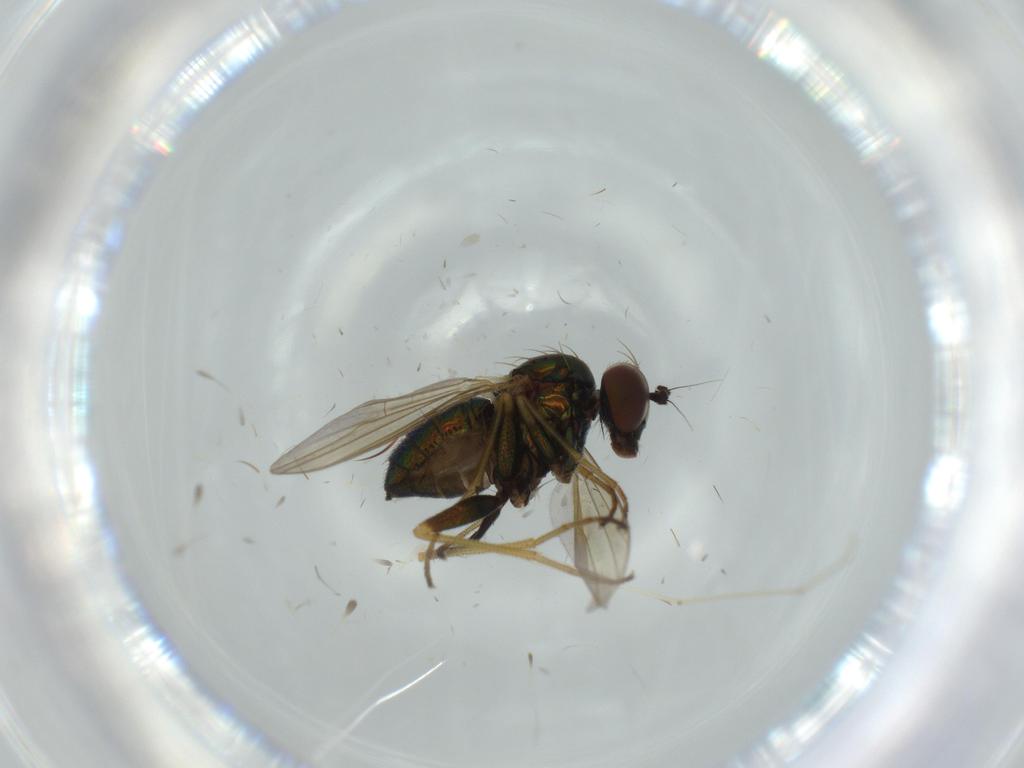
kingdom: Animalia
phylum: Arthropoda
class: Insecta
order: Diptera
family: Dolichopodidae
